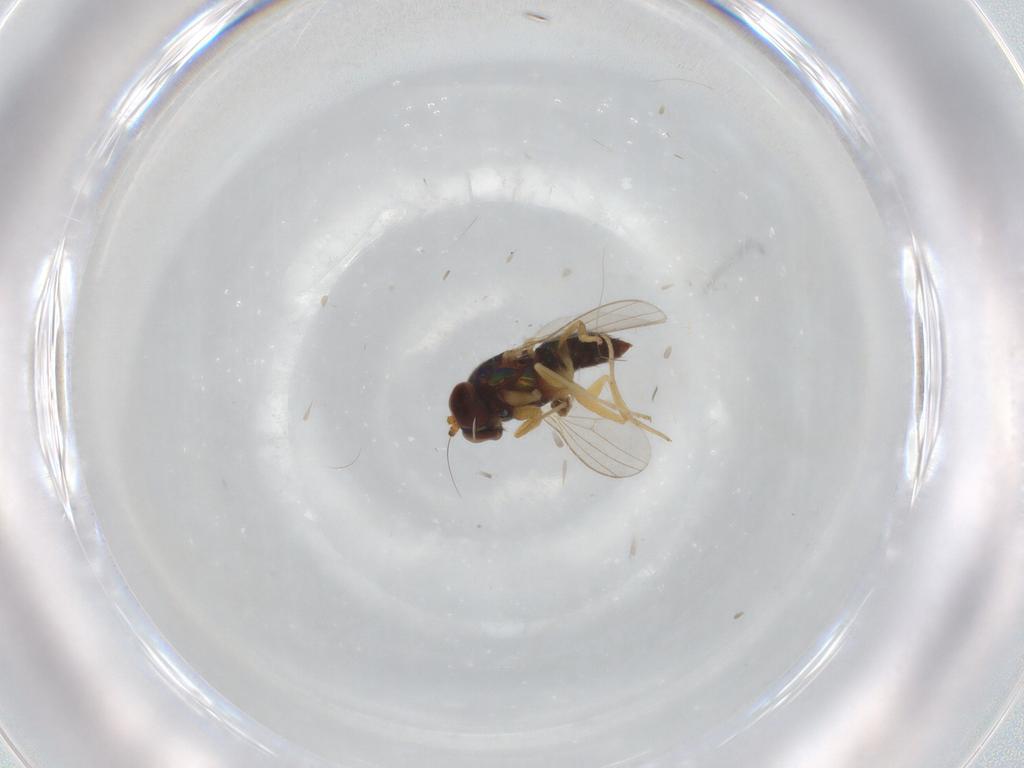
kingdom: Animalia
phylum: Arthropoda
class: Insecta
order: Diptera
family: Dolichopodidae
